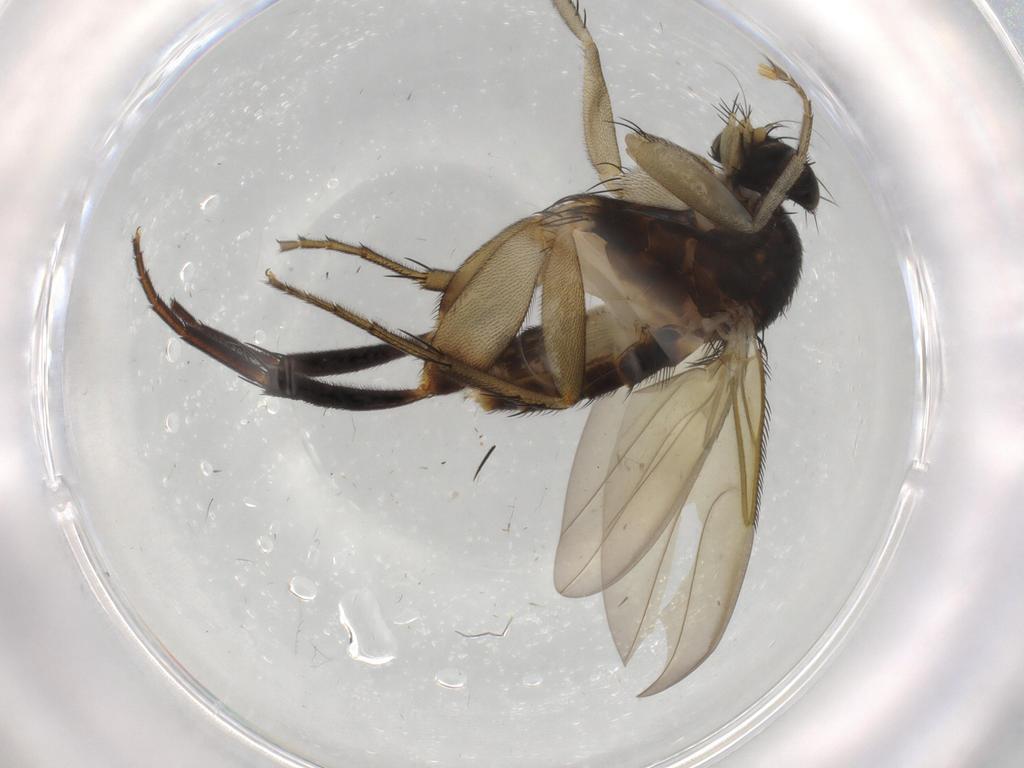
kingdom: Animalia
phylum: Arthropoda
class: Insecta
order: Diptera
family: Phoridae
